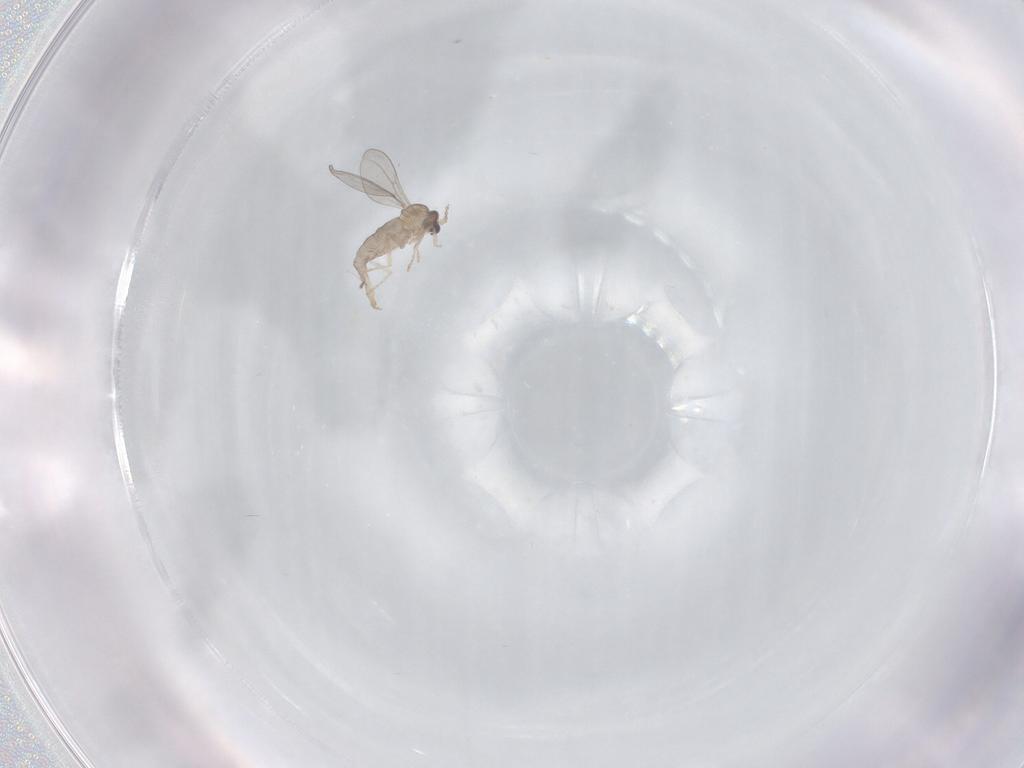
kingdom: Animalia
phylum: Arthropoda
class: Insecta
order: Diptera
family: Cecidomyiidae
